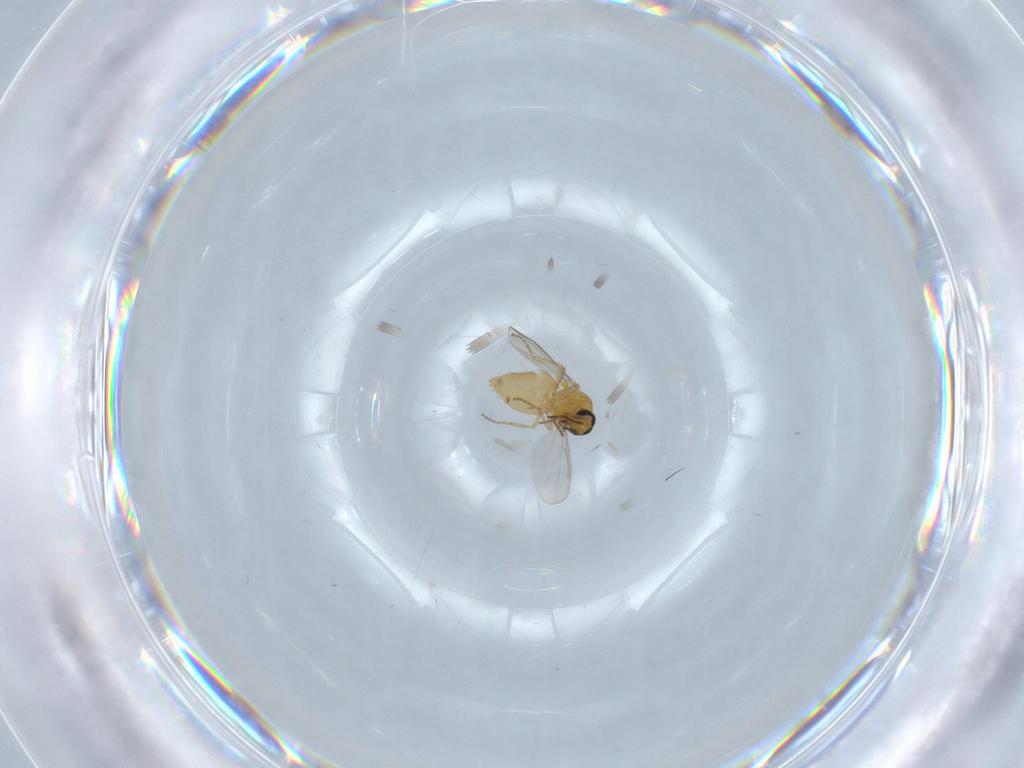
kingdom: Animalia
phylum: Arthropoda
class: Insecta
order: Diptera
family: Ceratopogonidae
